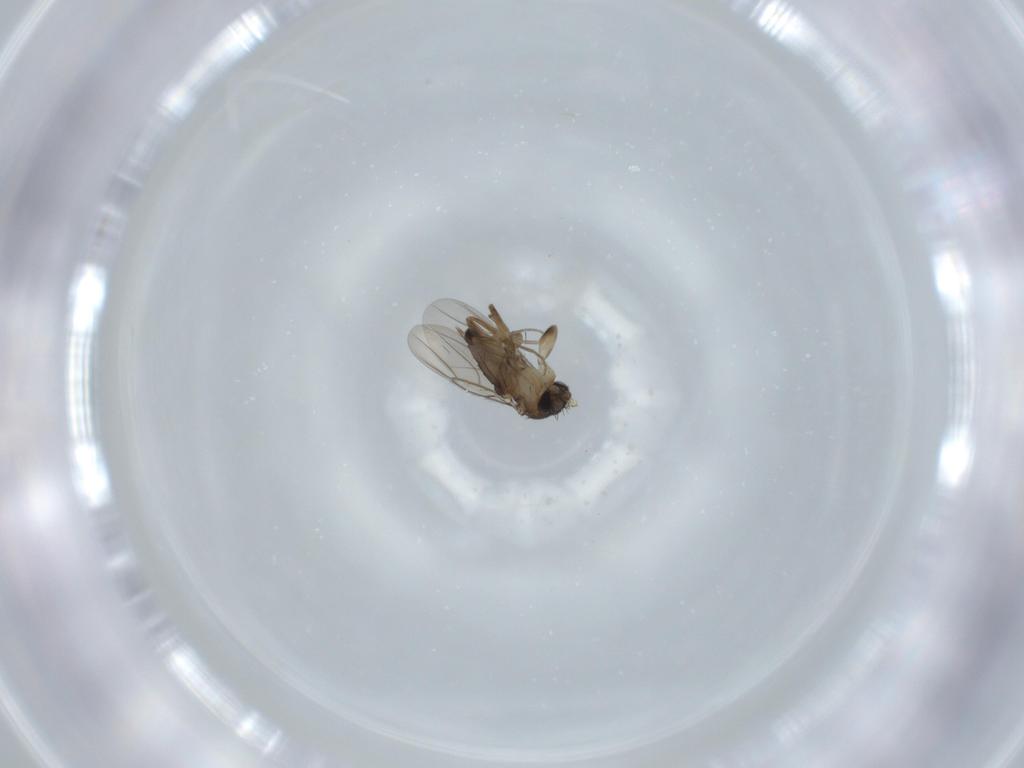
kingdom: Animalia
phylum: Arthropoda
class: Insecta
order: Diptera
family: Phoridae
